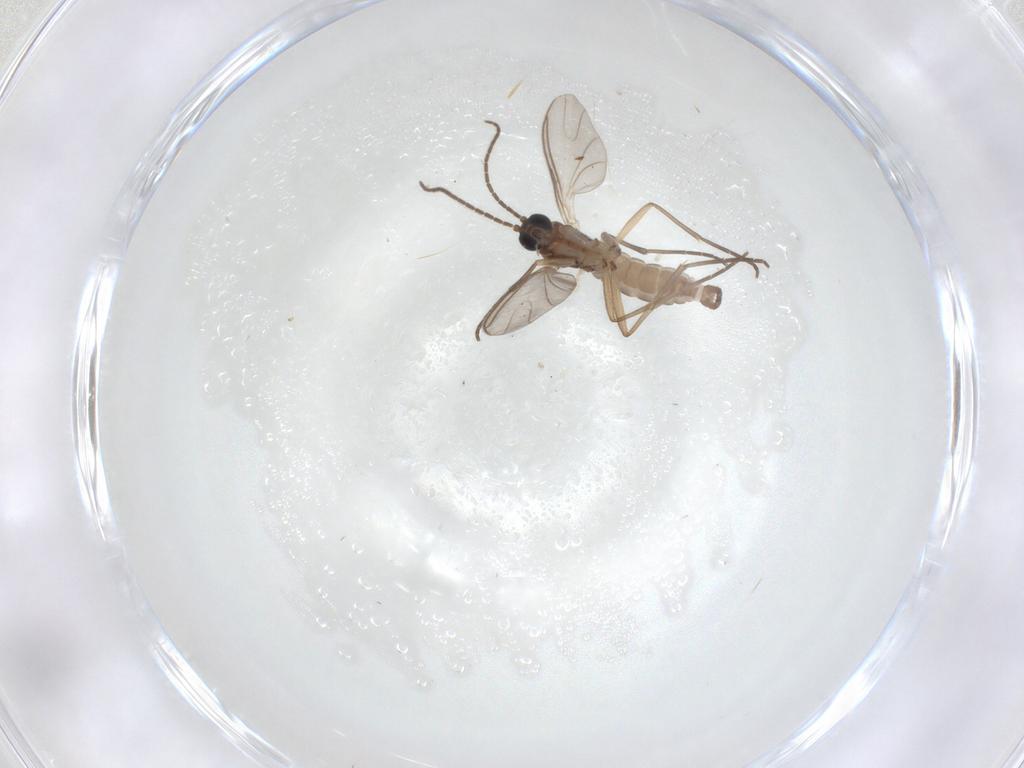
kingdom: Animalia
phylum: Arthropoda
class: Insecta
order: Diptera
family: Sciaridae
